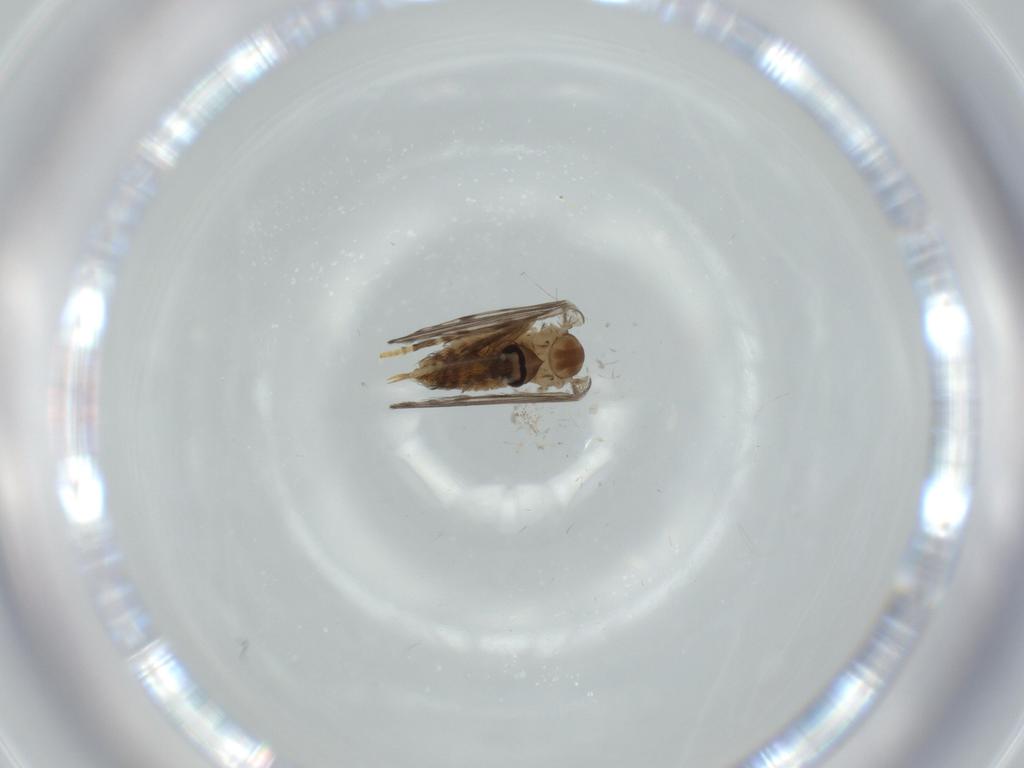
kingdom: Animalia
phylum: Arthropoda
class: Insecta
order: Diptera
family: Psychodidae
